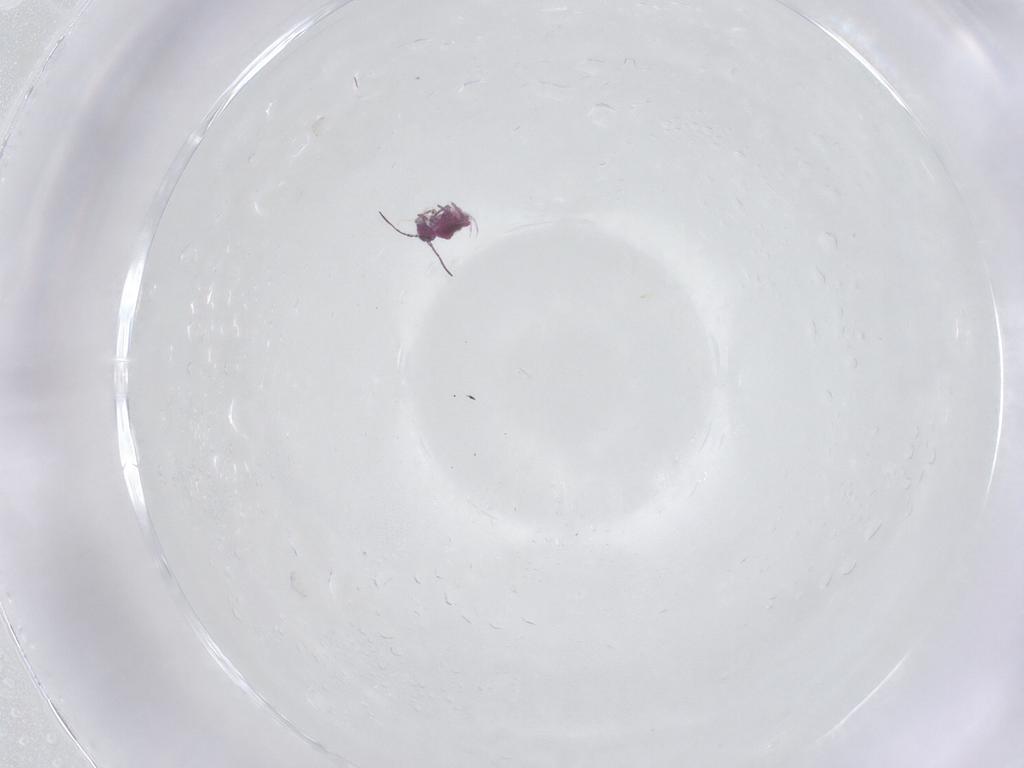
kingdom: Animalia
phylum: Arthropoda
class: Collembola
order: Symphypleona
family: Sminthuridae
